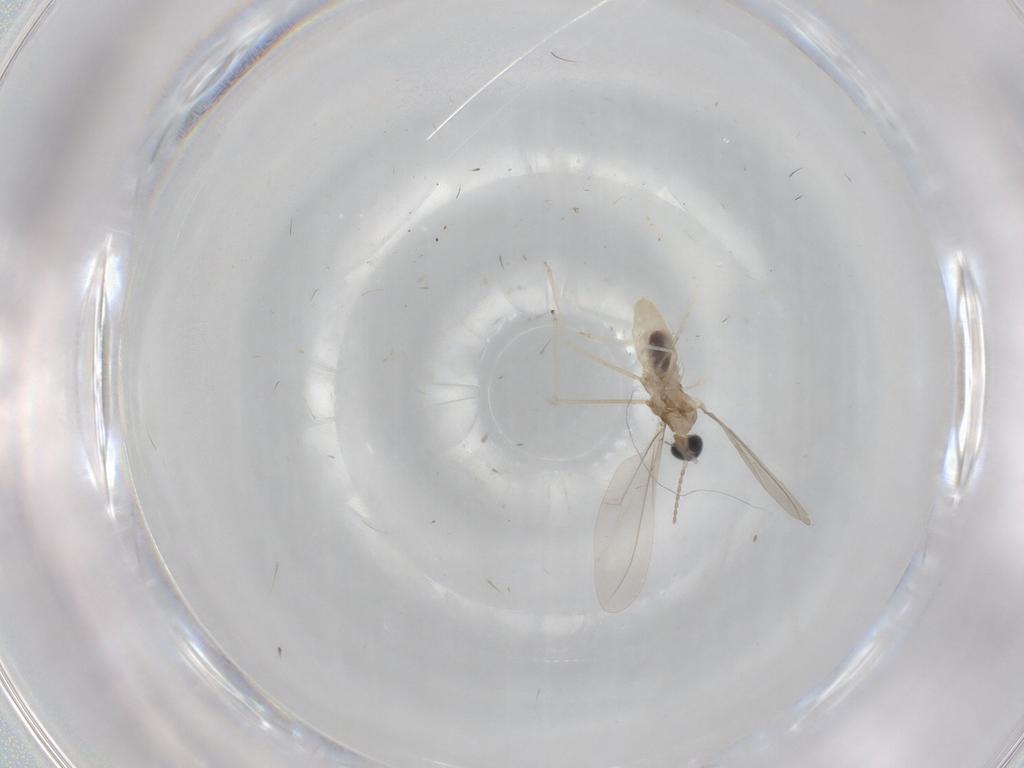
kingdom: Animalia
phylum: Arthropoda
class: Insecta
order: Diptera
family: Cecidomyiidae
